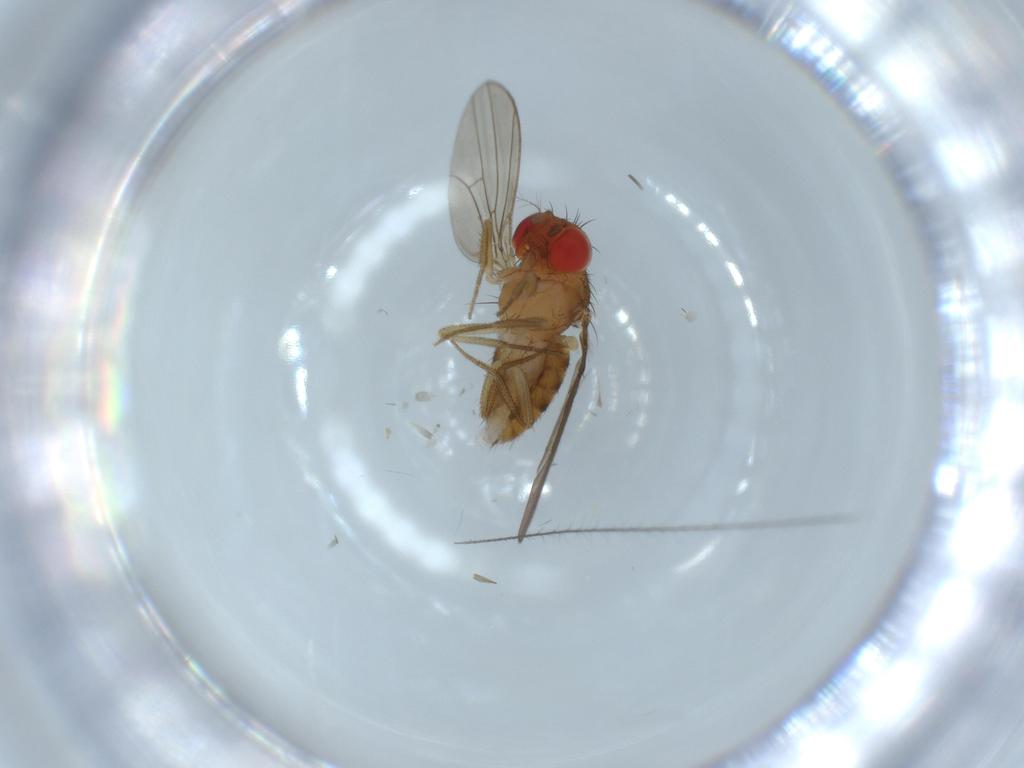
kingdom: Animalia
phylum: Arthropoda
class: Insecta
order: Diptera
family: Drosophilidae
